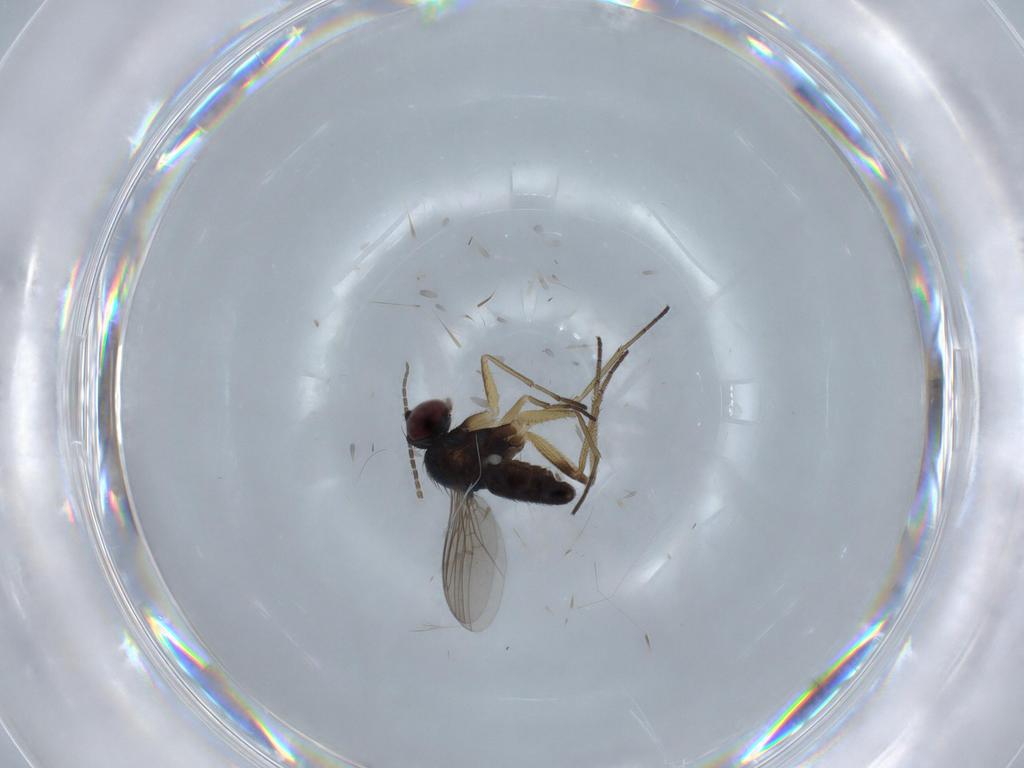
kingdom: Animalia
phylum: Arthropoda
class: Insecta
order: Diptera
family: Dolichopodidae
